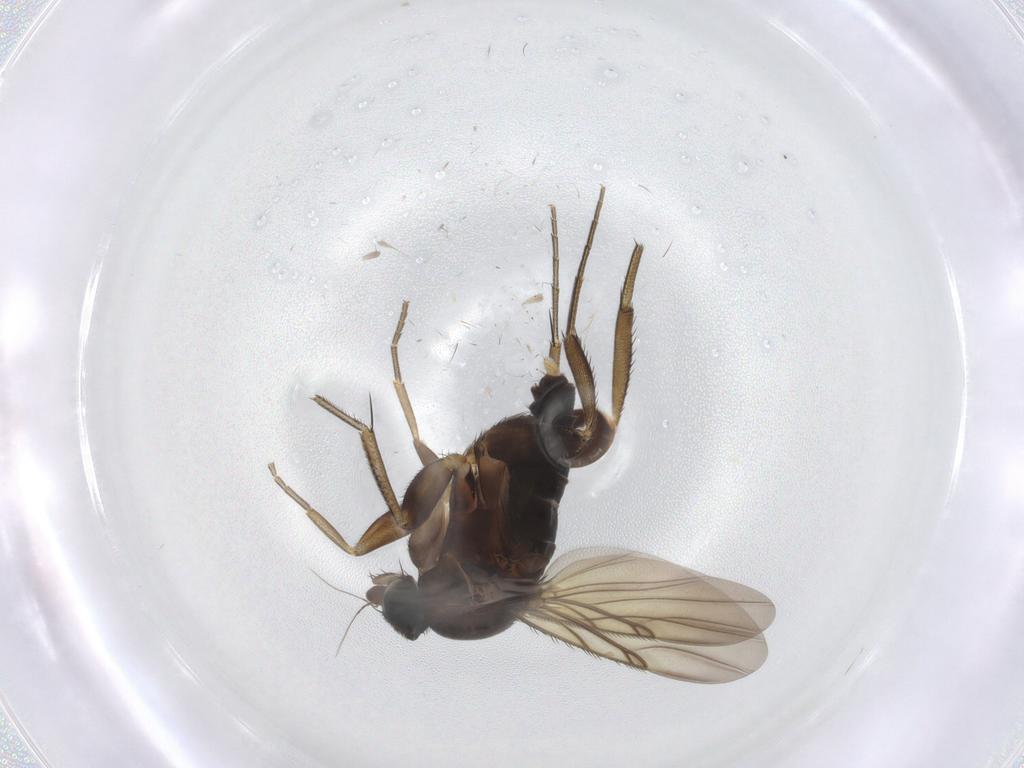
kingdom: Animalia
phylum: Arthropoda
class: Insecta
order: Diptera
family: Phoridae
